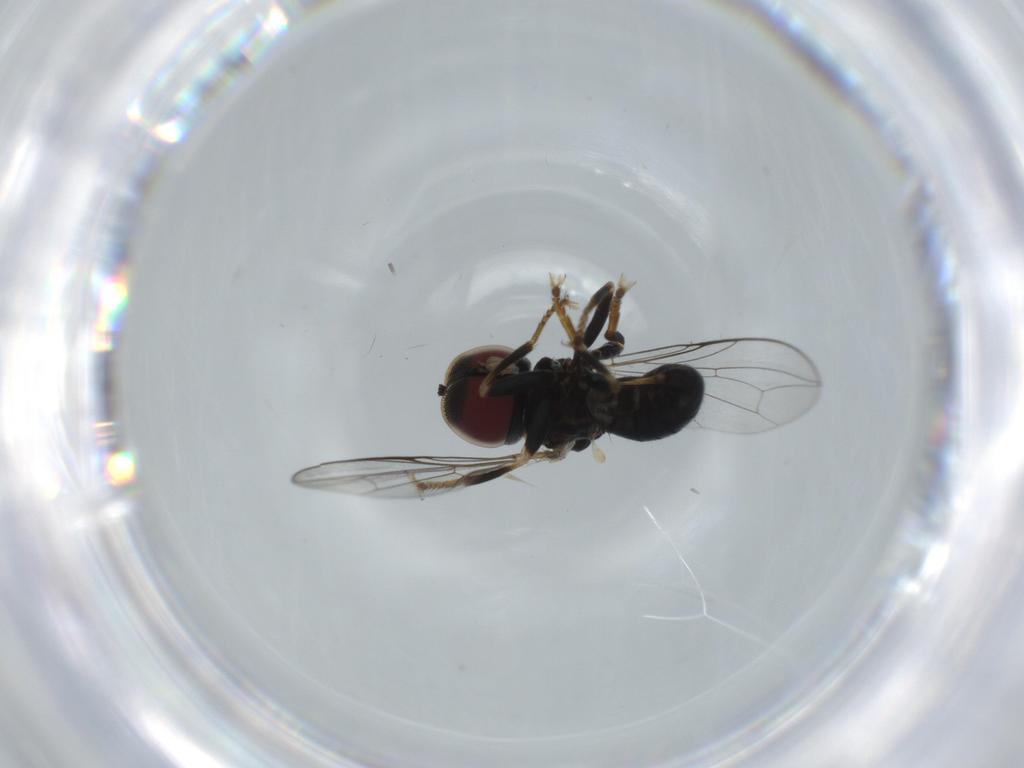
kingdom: Animalia
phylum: Arthropoda
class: Insecta
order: Diptera
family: Pipunculidae
